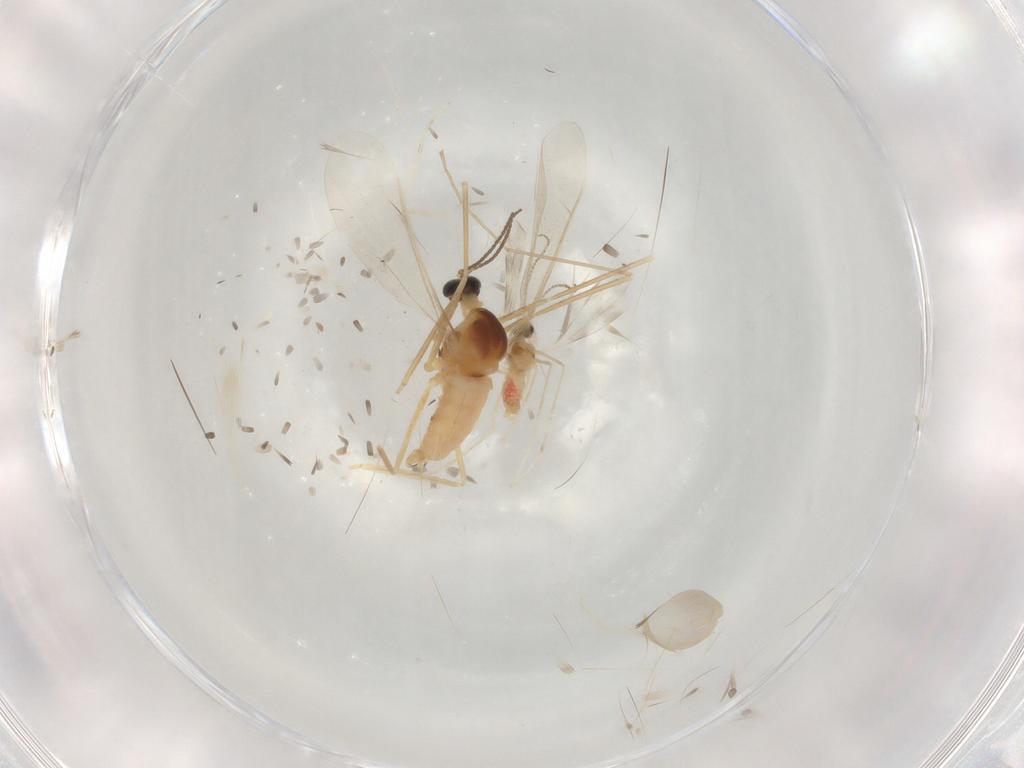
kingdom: Animalia
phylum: Arthropoda
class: Insecta
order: Diptera
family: Cecidomyiidae
